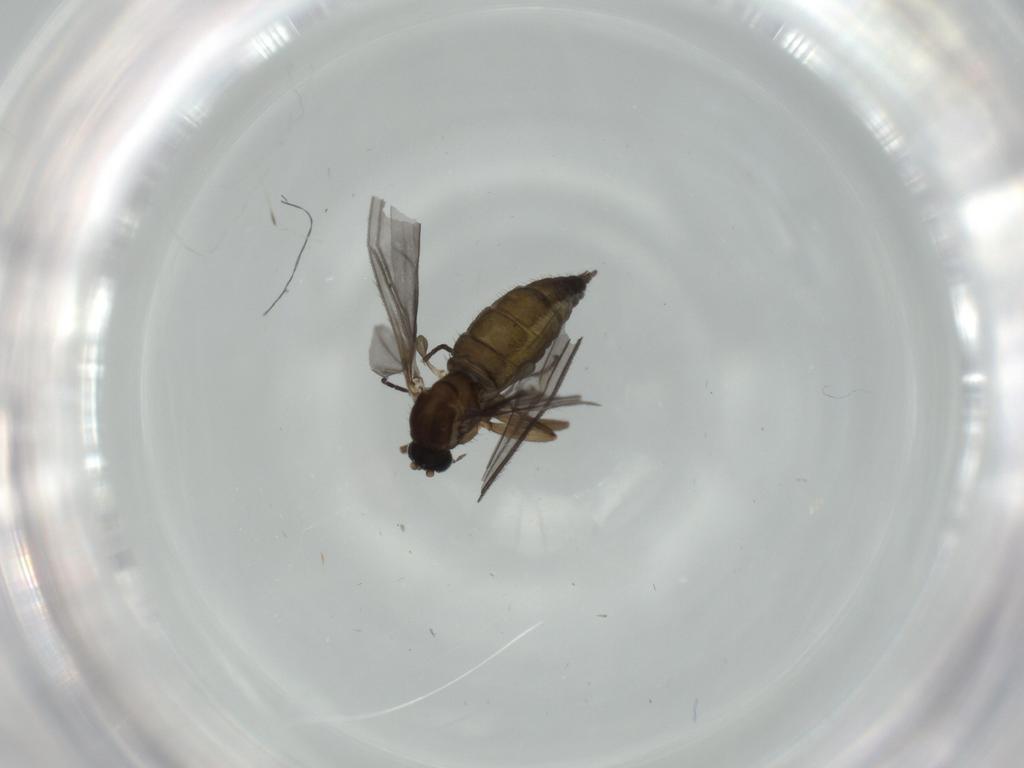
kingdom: Animalia
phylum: Arthropoda
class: Insecta
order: Diptera
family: Sciaridae
